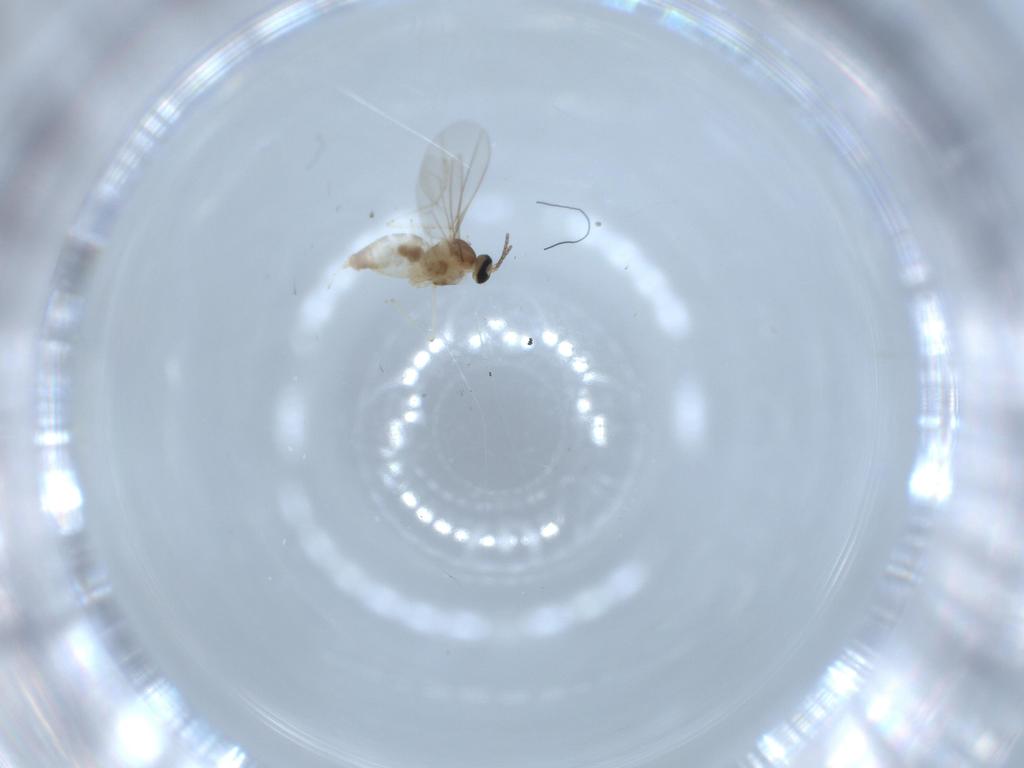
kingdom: Animalia
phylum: Arthropoda
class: Insecta
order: Diptera
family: Cecidomyiidae
